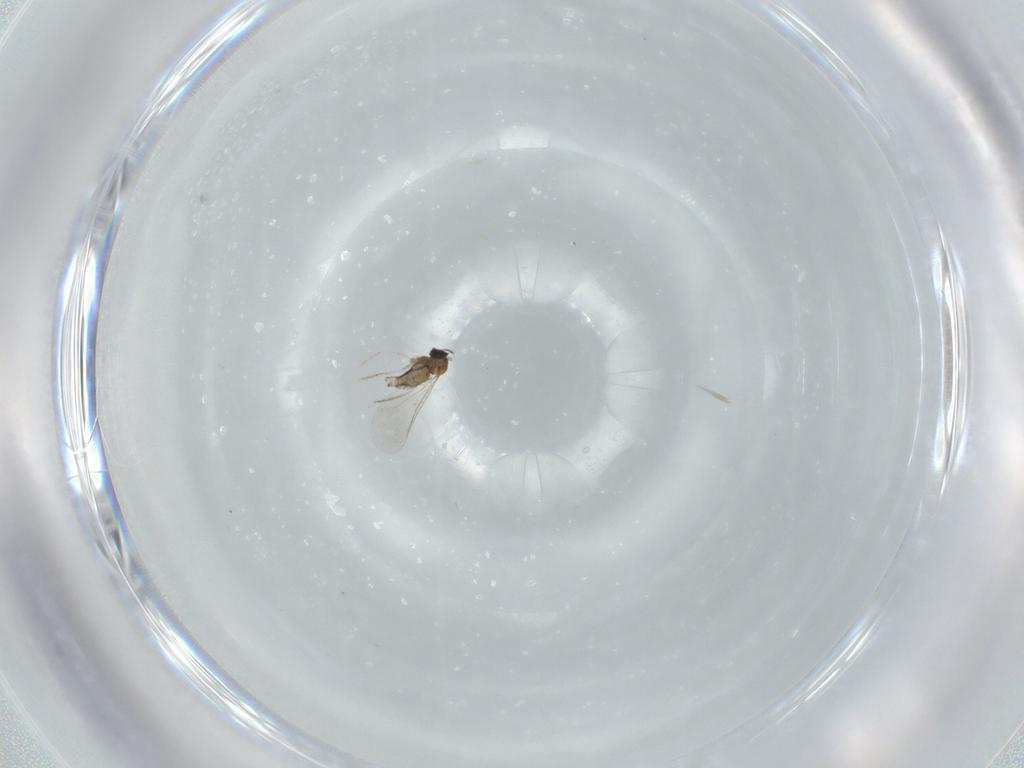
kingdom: Animalia
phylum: Arthropoda
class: Insecta
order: Diptera
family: Cecidomyiidae
